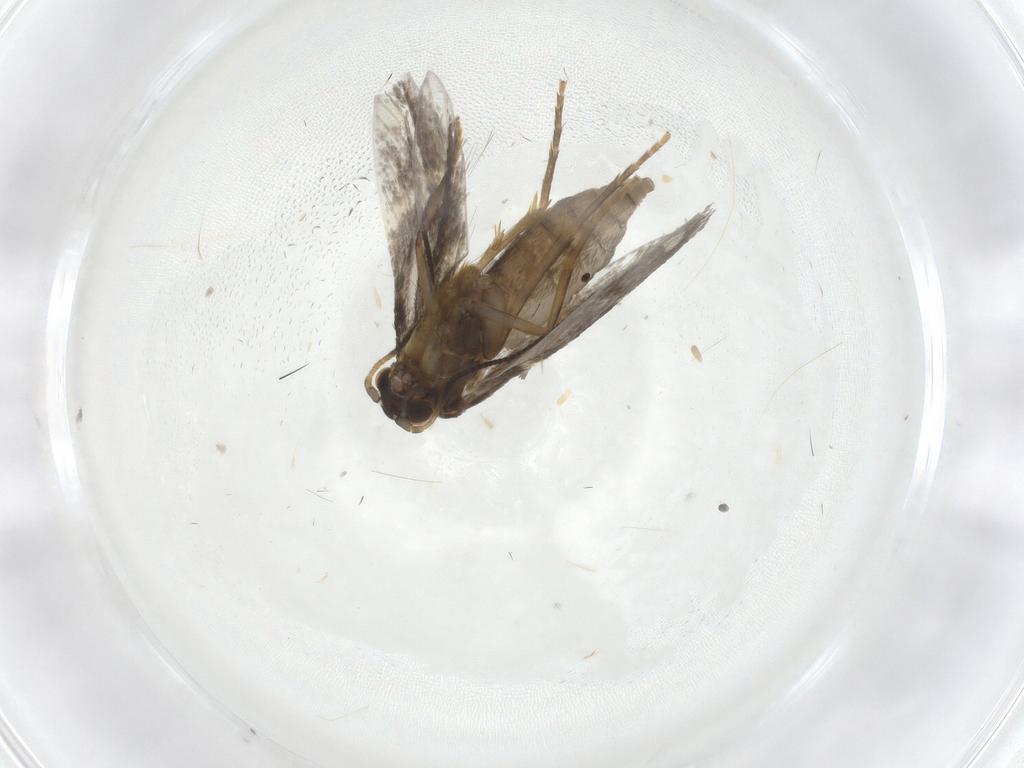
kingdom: Animalia
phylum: Arthropoda
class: Insecta
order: Lepidoptera
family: Micropterigidae
